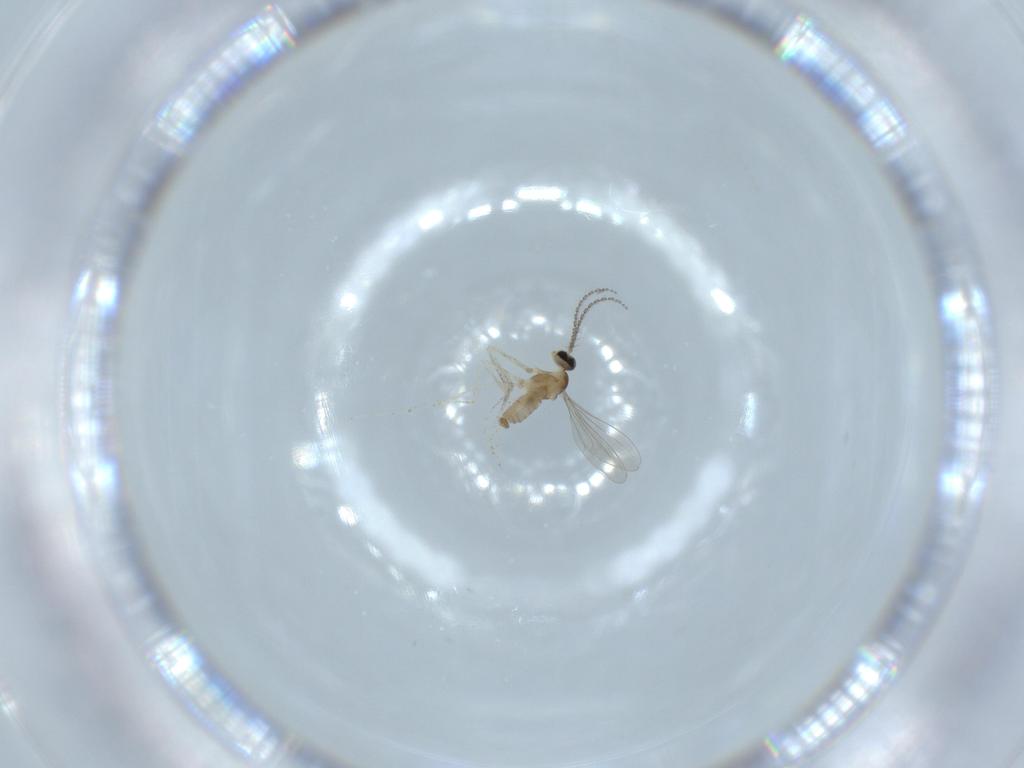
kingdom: Animalia
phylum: Arthropoda
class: Insecta
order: Diptera
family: Cecidomyiidae
